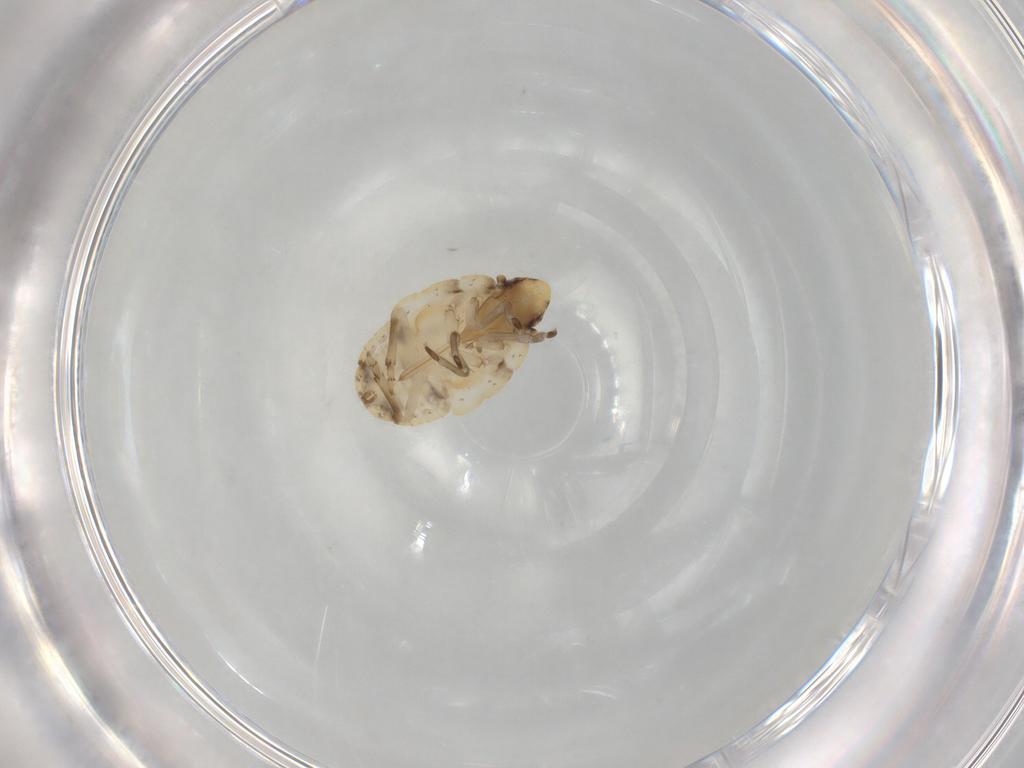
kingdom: Animalia
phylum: Arthropoda
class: Insecta
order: Hemiptera
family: Flatidae
